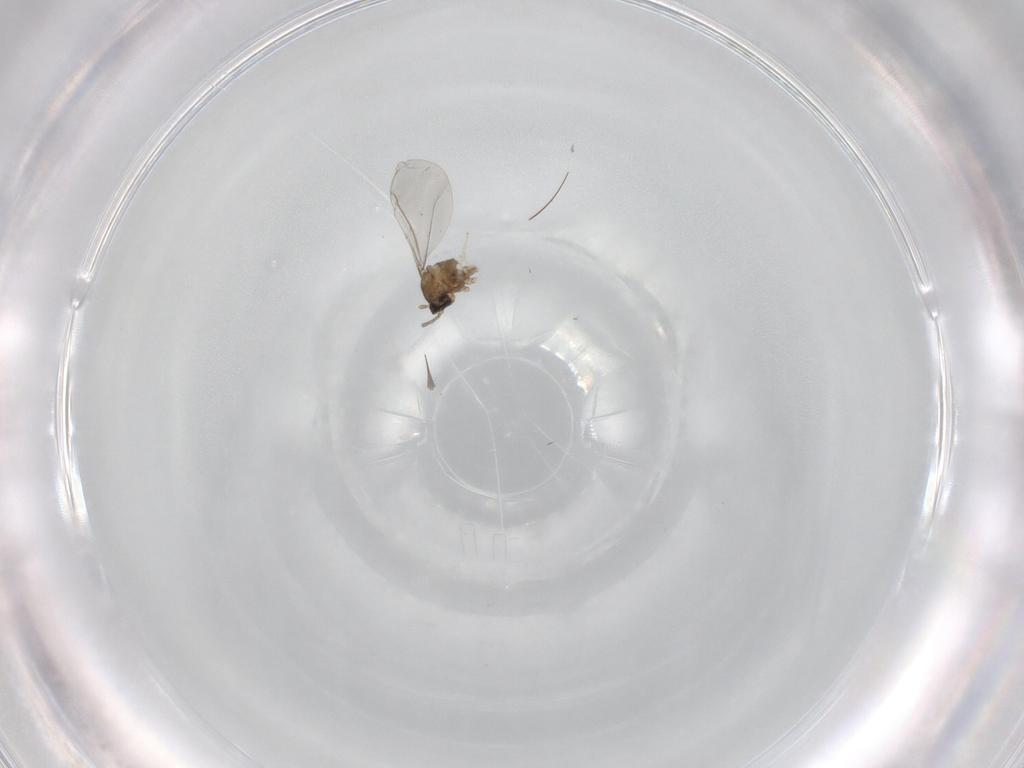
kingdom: Animalia
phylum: Arthropoda
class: Insecta
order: Diptera
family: Cecidomyiidae
